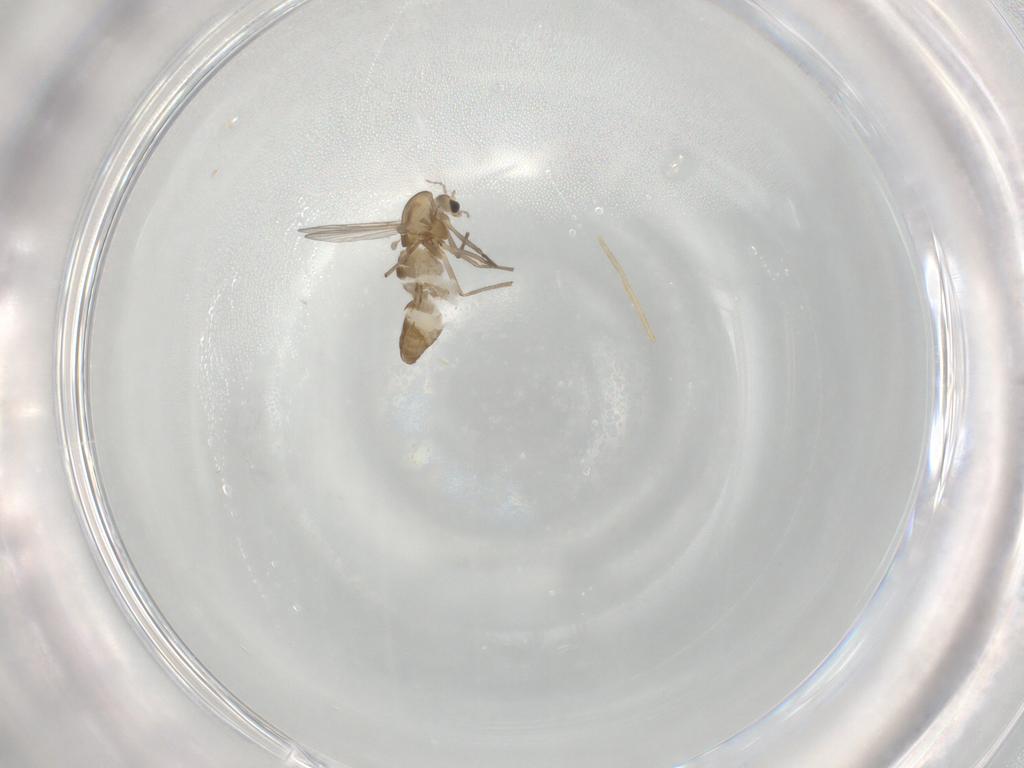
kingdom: Animalia
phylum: Arthropoda
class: Insecta
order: Diptera
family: Chironomidae
